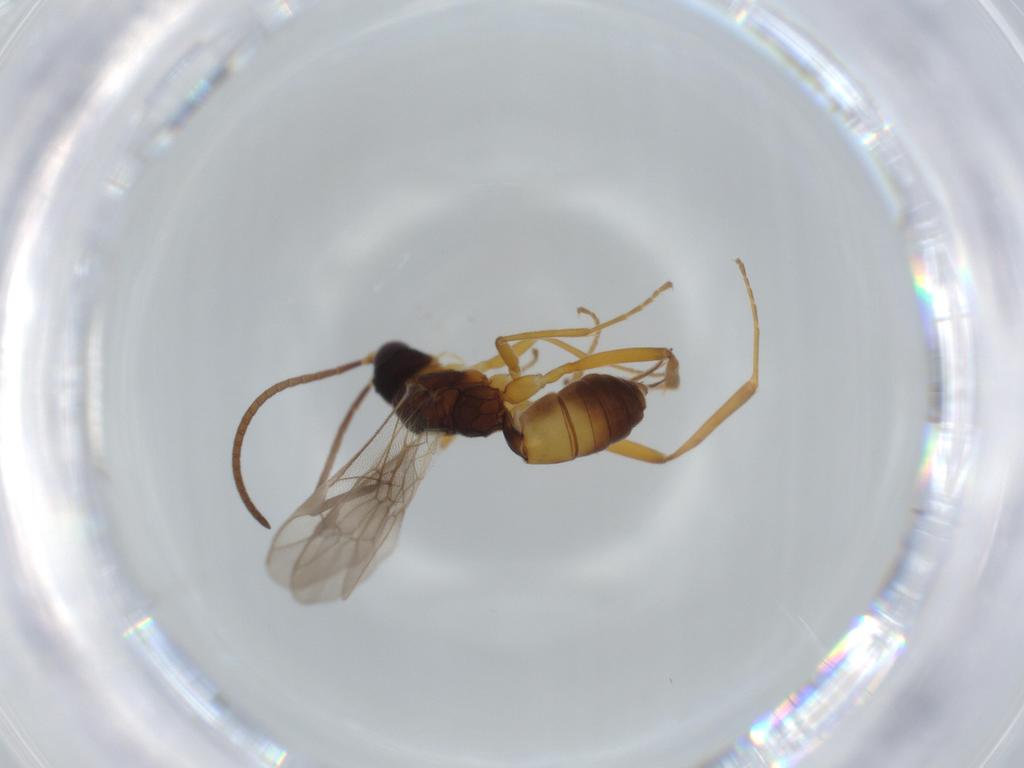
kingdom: Animalia
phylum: Arthropoda
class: Insecta
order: Hymenoptera
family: Ichneumonidae
